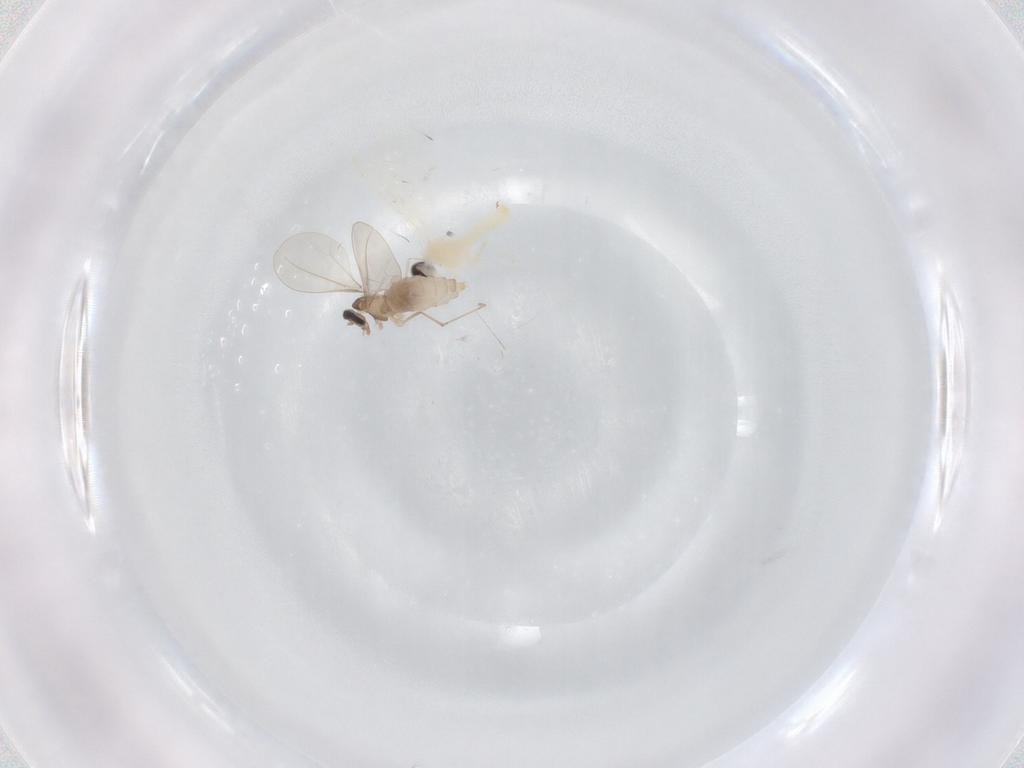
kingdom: Animalia
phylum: Arthropoda
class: Insecta
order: Diptera
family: Cecidomyiidae
